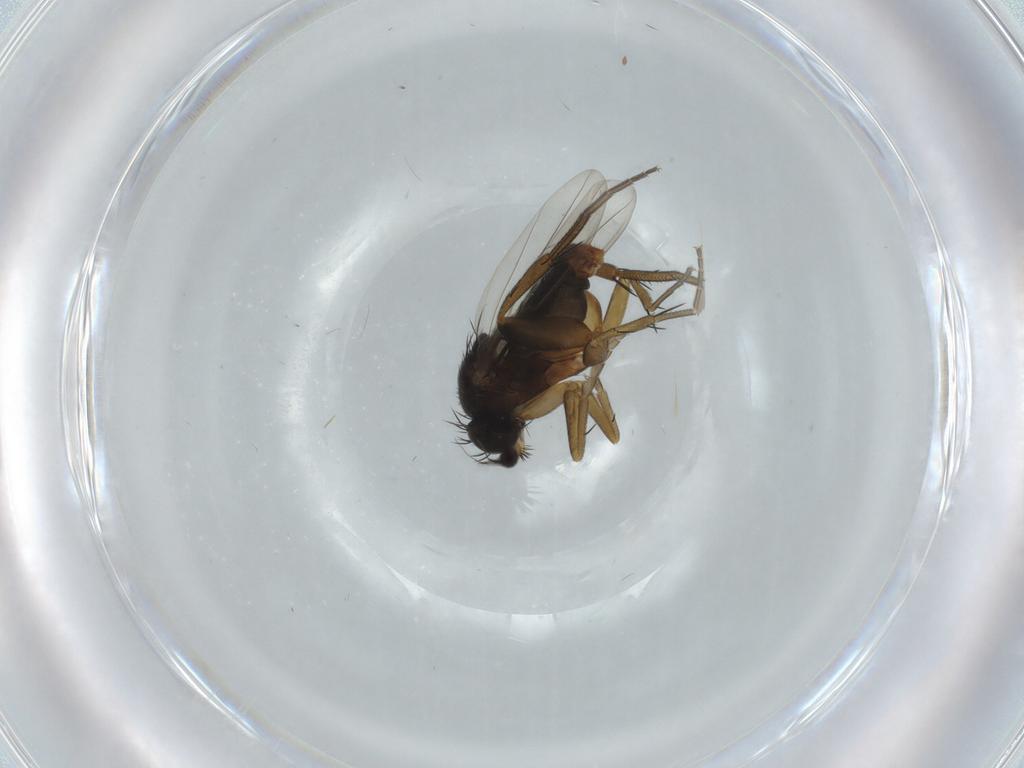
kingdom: Animalia
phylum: Arthropoda
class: Insecta
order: Diptera
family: Phoridae
